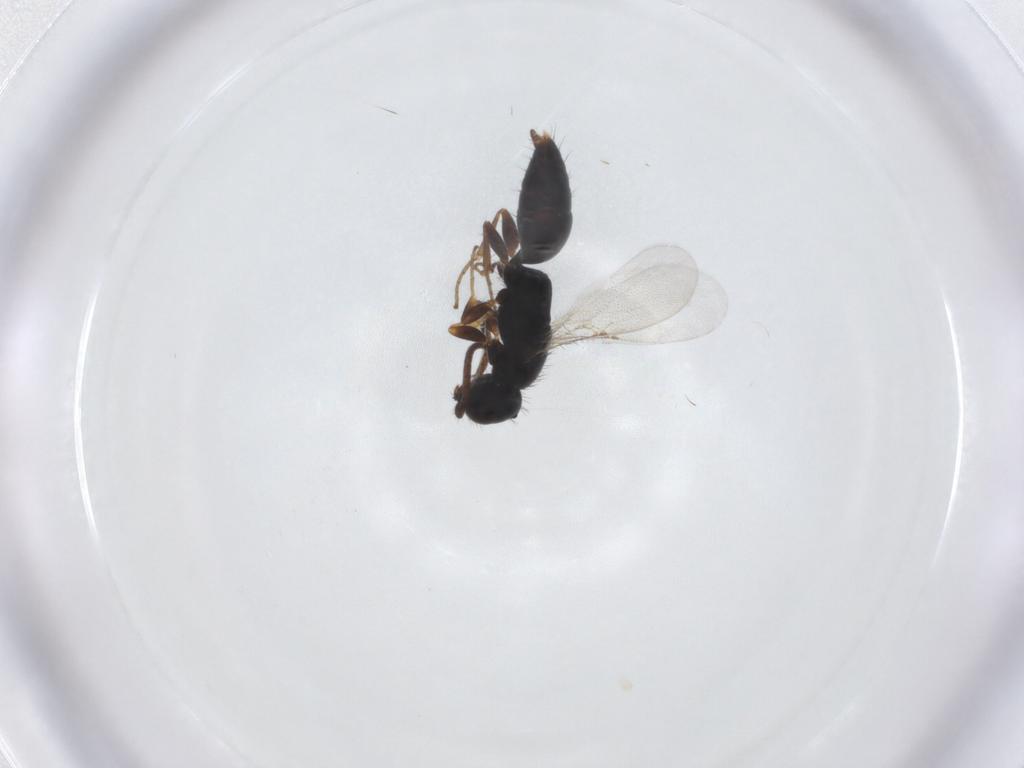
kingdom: Animalia
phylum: Arthropoda
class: Insecta
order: Hymenoptera
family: Bethylidae
